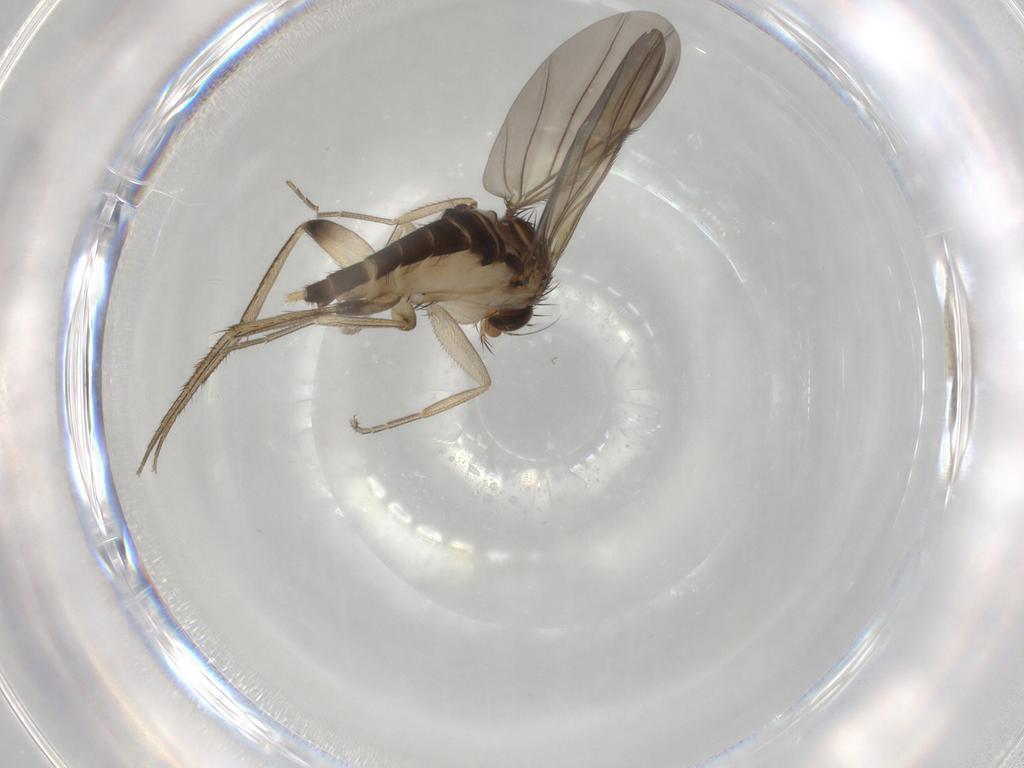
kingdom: Animalia
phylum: Arthropoda
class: Insecta
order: Diptera
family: Phoridae
